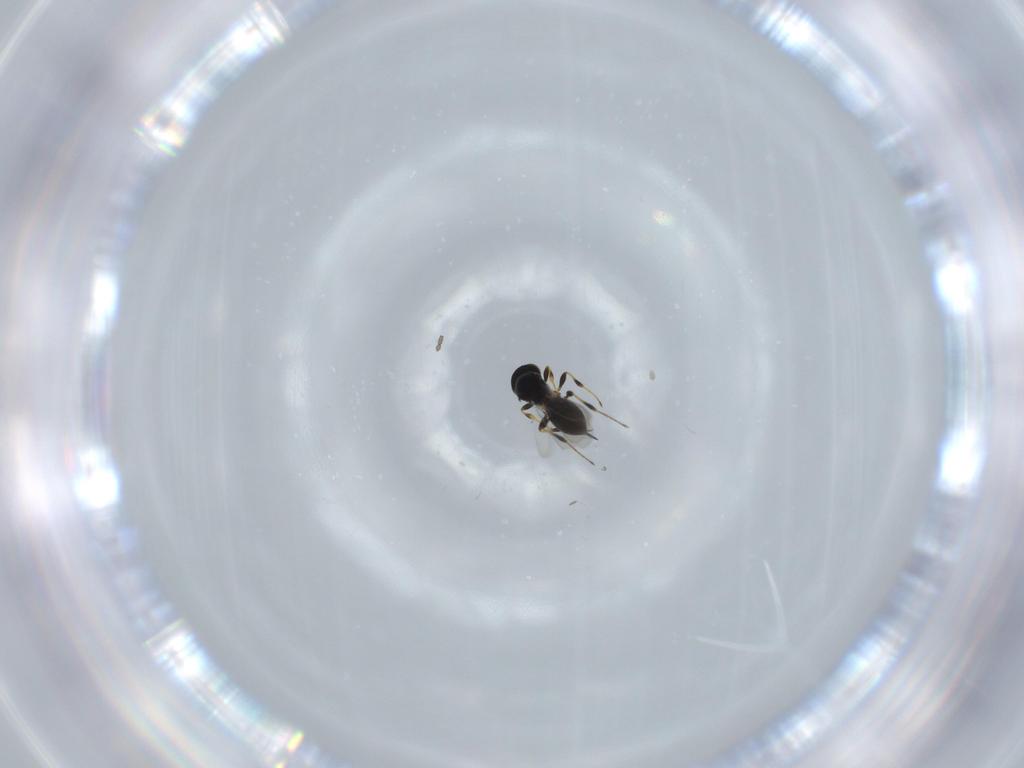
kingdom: Animalia
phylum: Arthropoda
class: Insecta
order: Hymenoptera
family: Platygastridae
